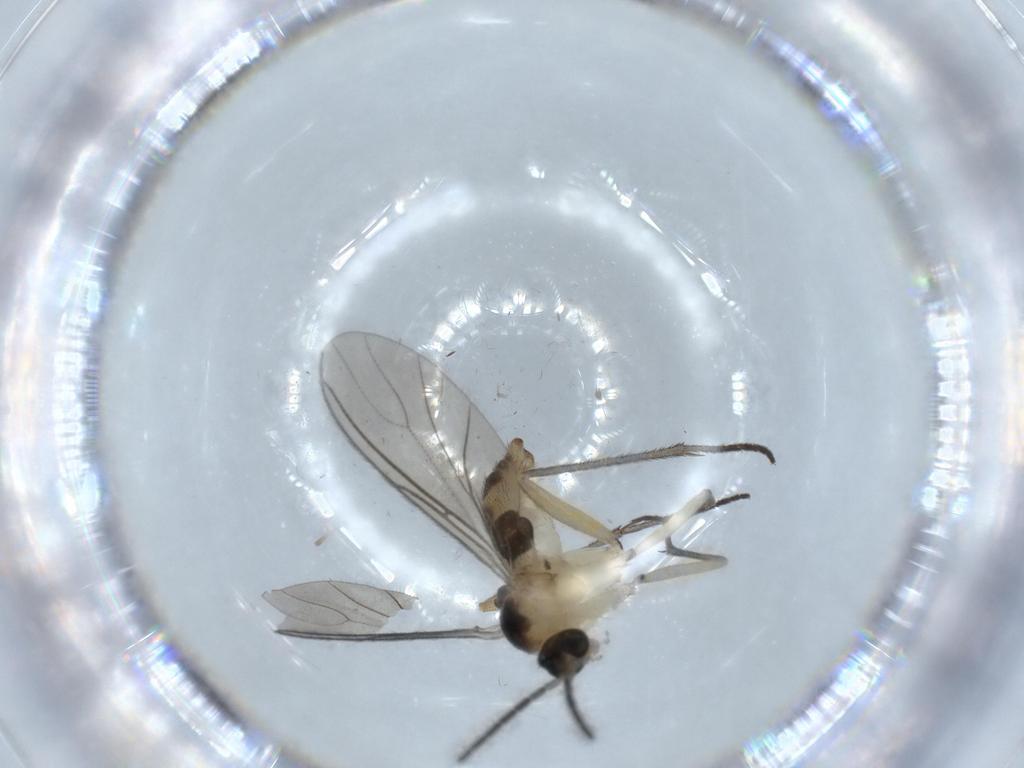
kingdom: Animalia
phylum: Arthropoda
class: Insecta
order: Diptera
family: Sciaridae
